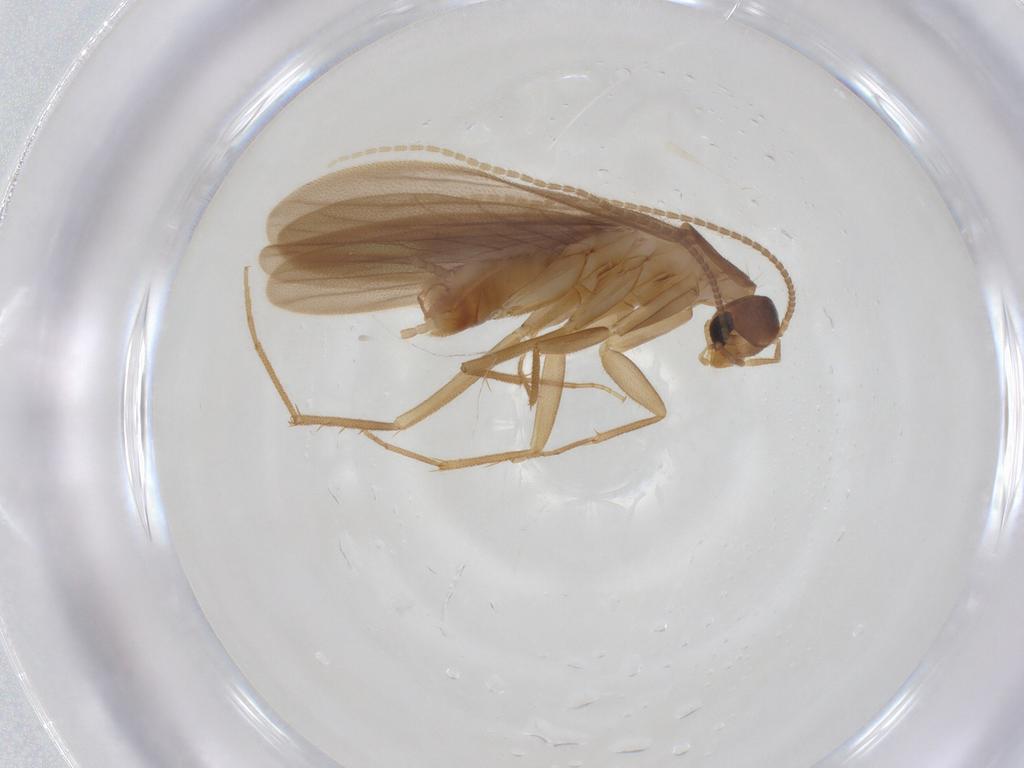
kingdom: Animalia
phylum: Arthropoda
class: Insecta
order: Blattodea
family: Nocticolidae
